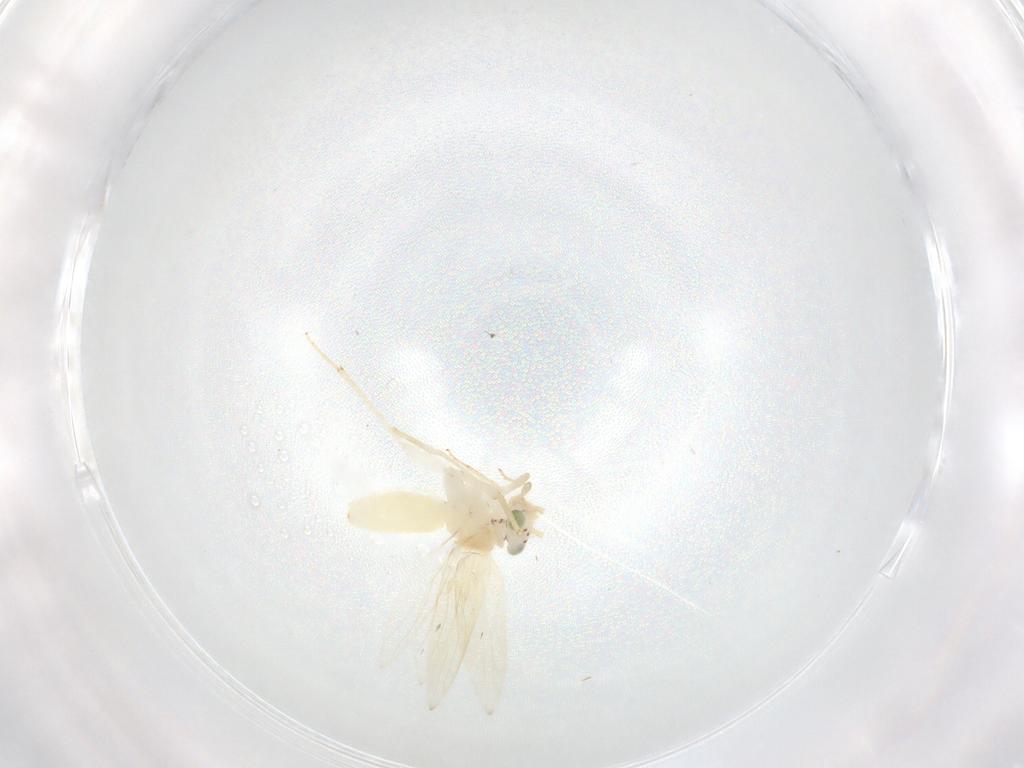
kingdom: Animalia
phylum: Arthropoda
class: Insecta
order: Psocodea
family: Lepidopsocidae
